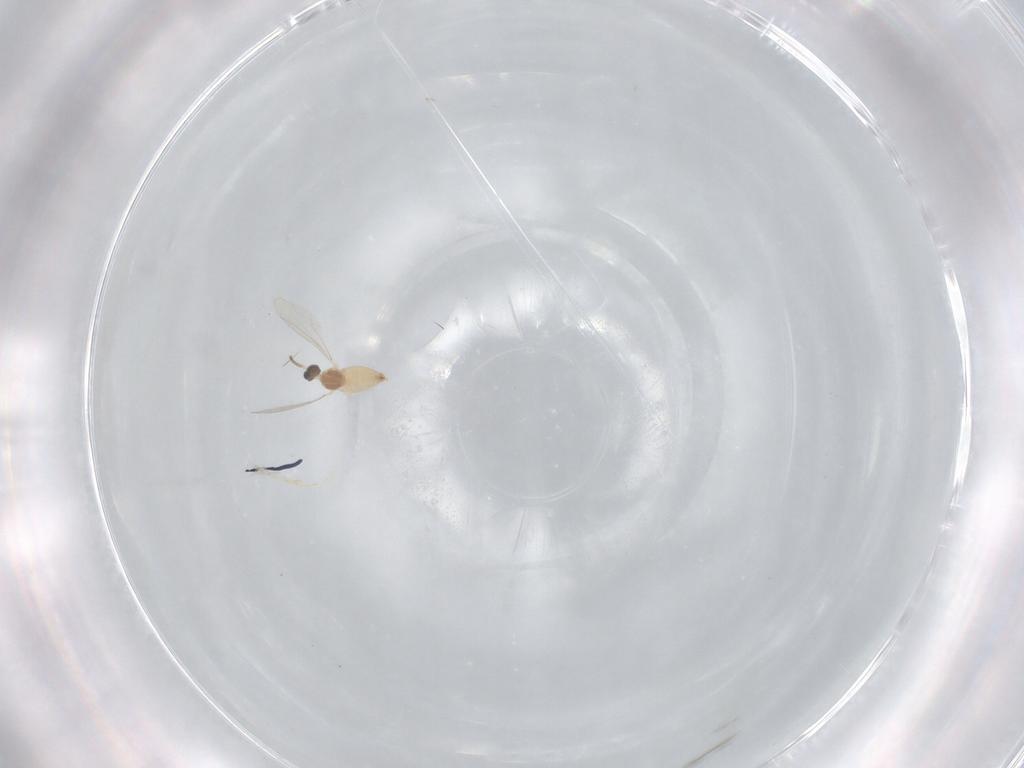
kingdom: Animalia
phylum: Arthropoda
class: Insecta
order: Diptera
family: Cecidomyiidae
